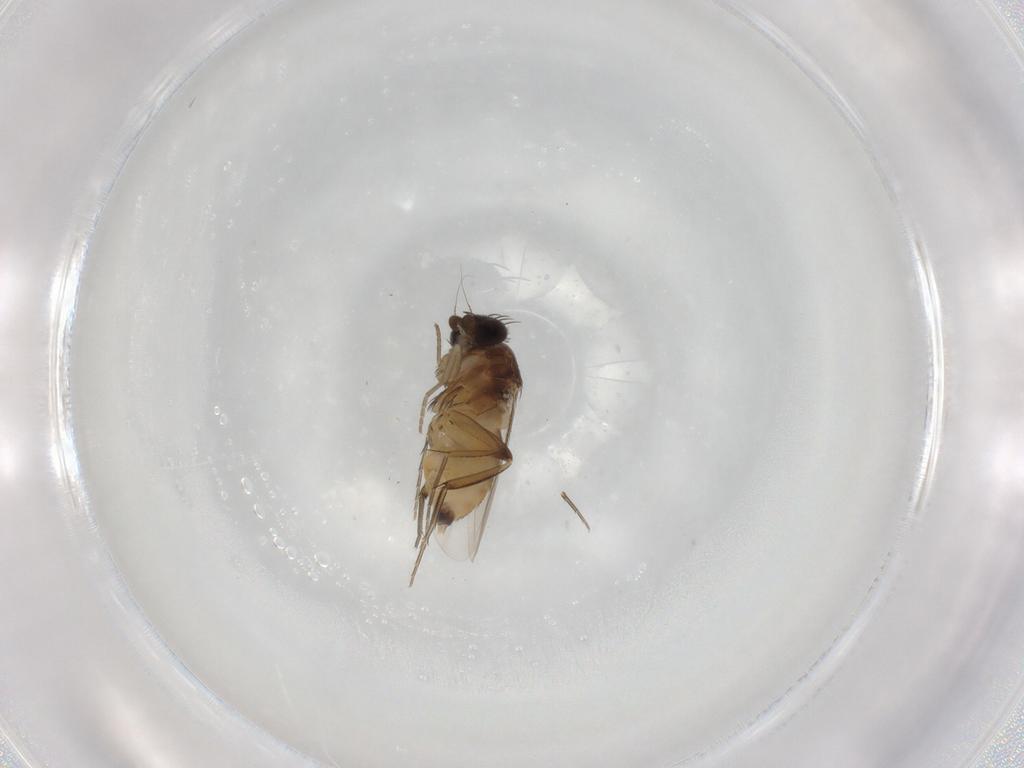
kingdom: Animalia
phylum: Arthropoda
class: Insecta
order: Diptera
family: Phoridae
